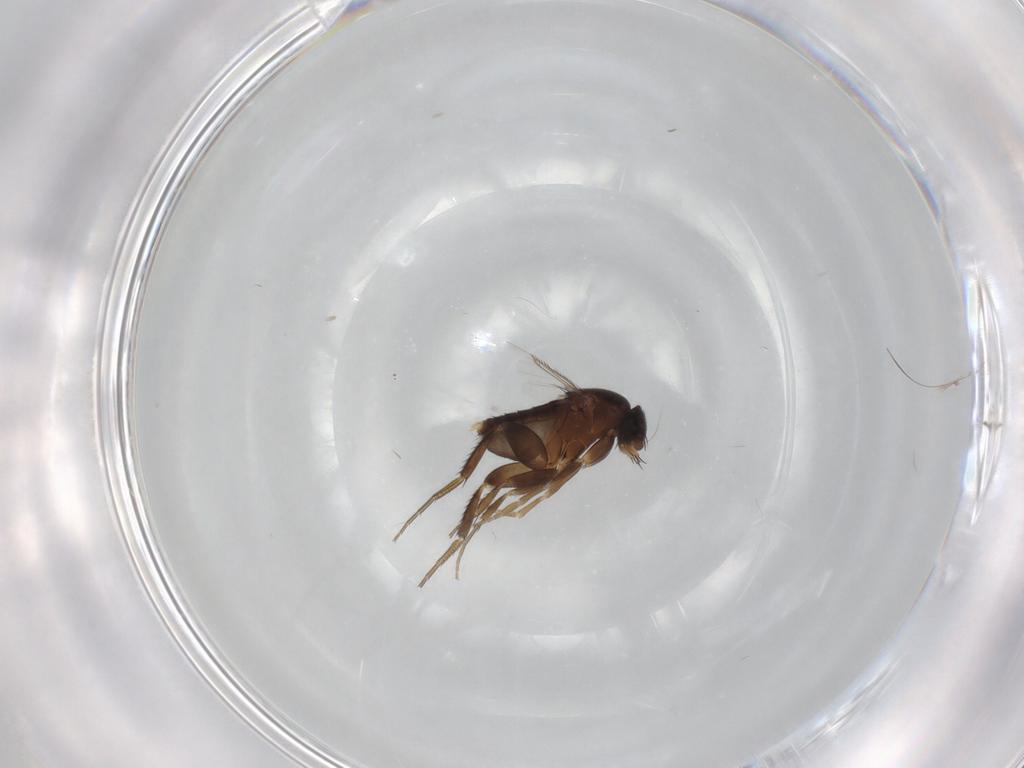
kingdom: Animalia
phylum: Arthropoda
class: Insecta
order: Diptera
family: Phoridae
